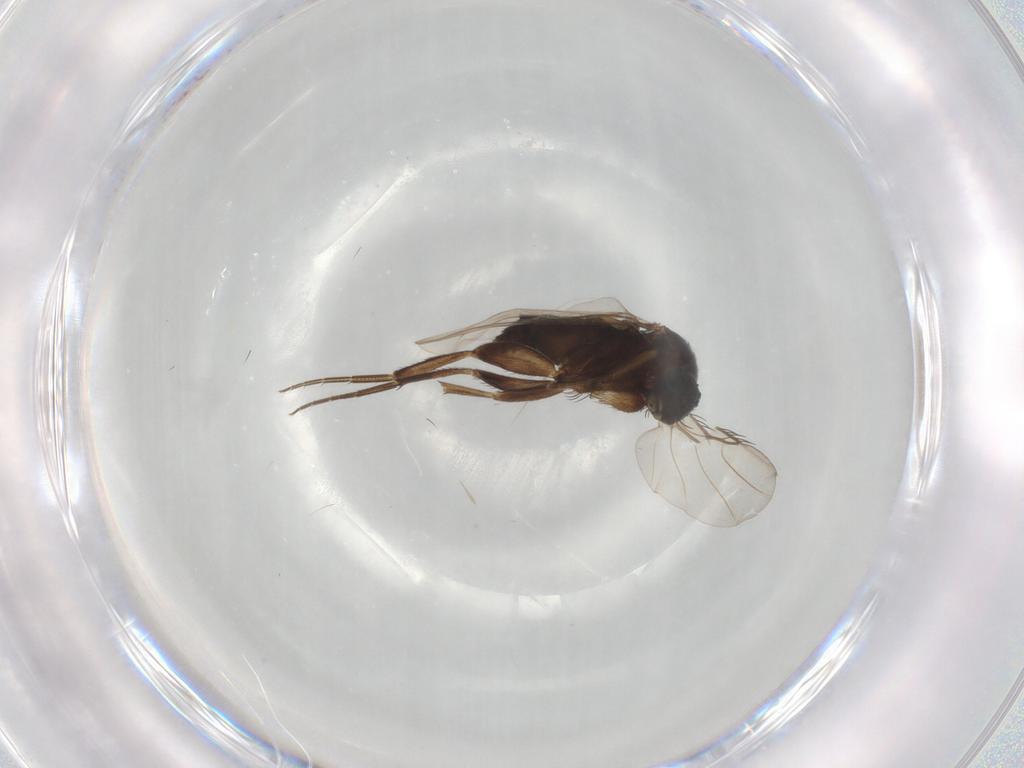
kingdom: Animalia
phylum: Arthropoda
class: Insecta
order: Diptera
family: Phoridae
